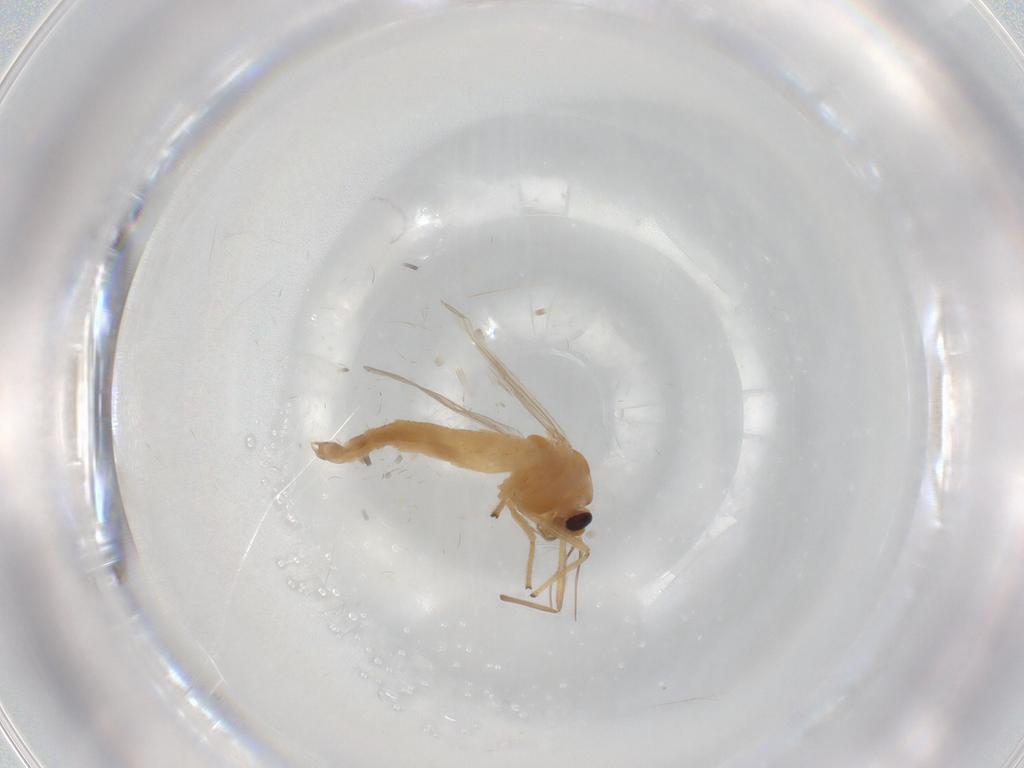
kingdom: Animalia
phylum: Arthropoda
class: Insecta
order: Diptera
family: Chironomidae
